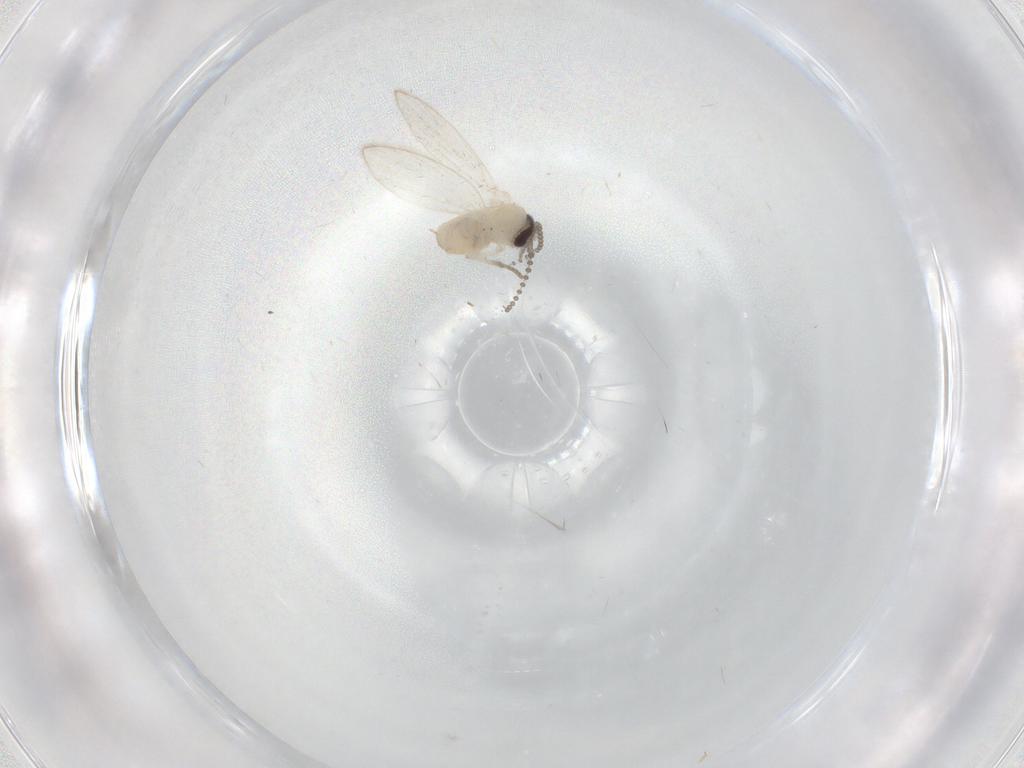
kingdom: Animalia
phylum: Arthropoda
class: Insecta
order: Diptera
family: Psychodidae
